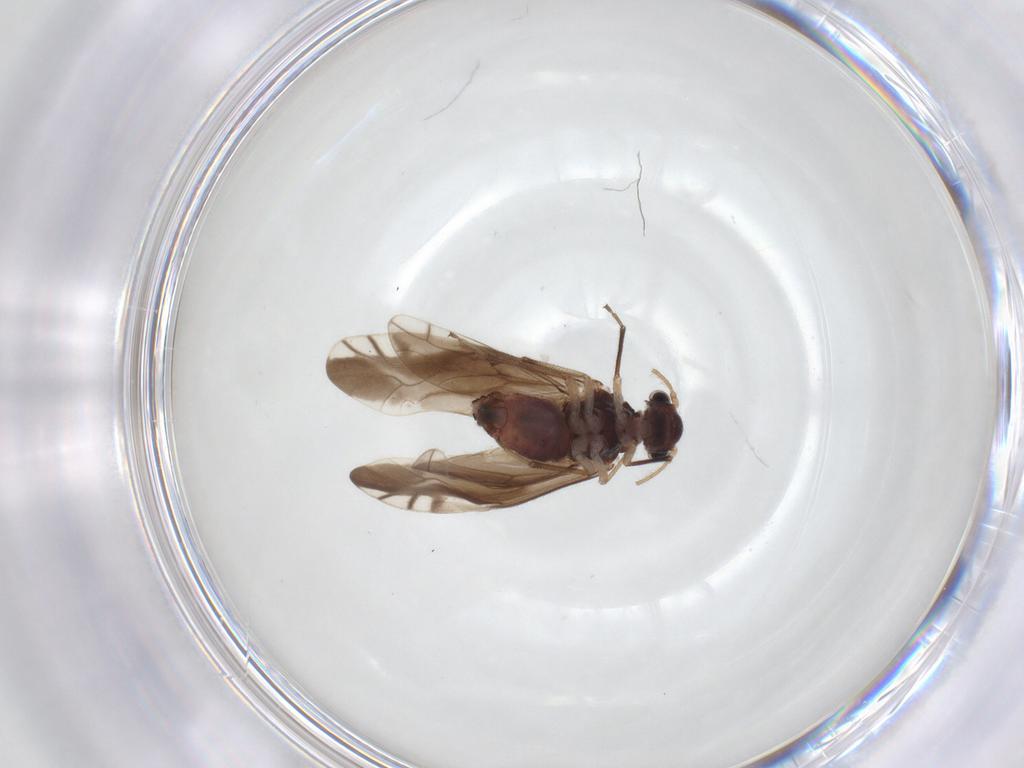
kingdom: Animalia
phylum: Arthropoda
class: Insecta
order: Psocodea
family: Caeciliusidae
